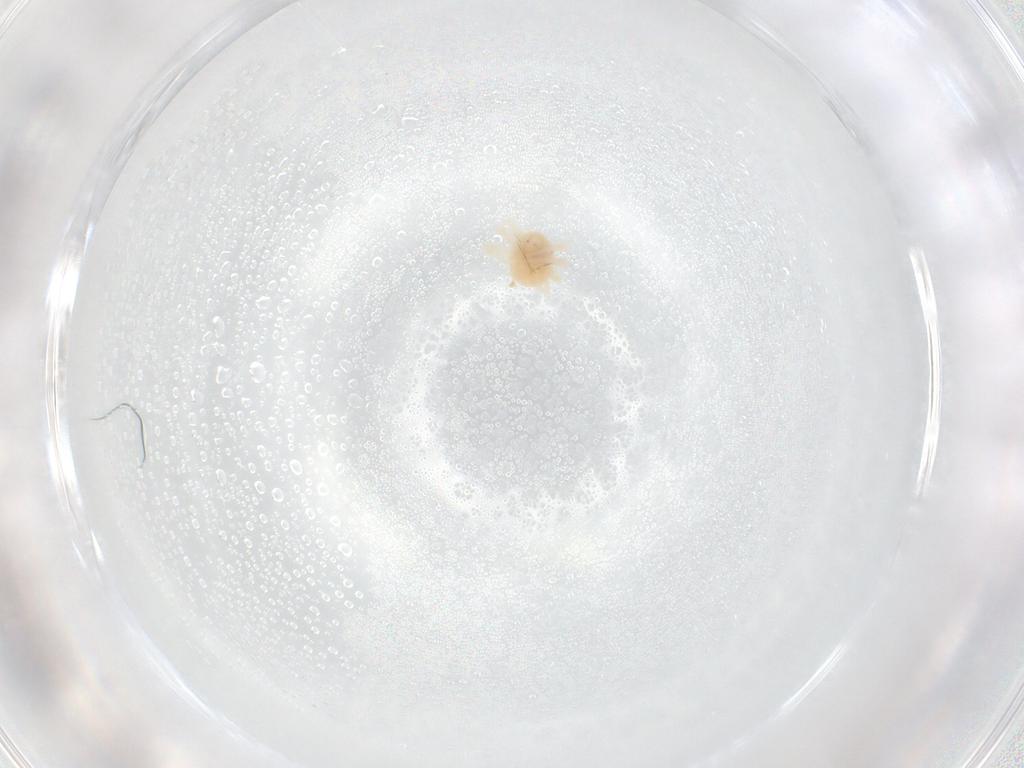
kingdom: Animalia
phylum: Arthropoda
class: Arachnida
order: Trombidiformes
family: Anystidae
